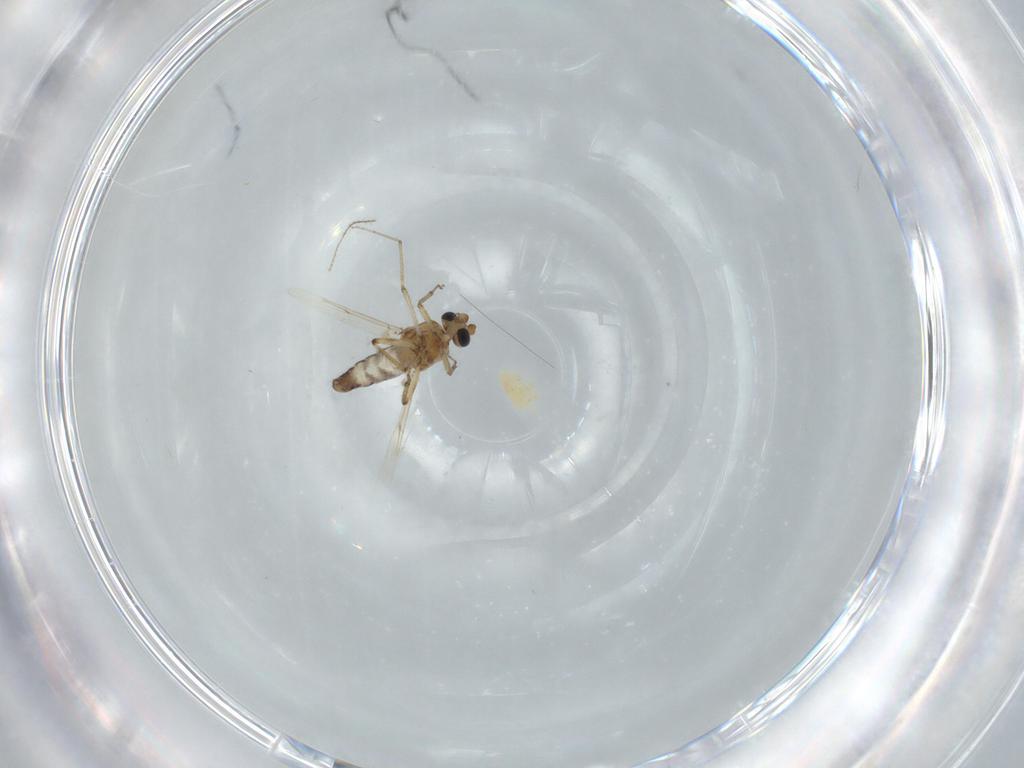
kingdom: Animalia
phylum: Arthropoda
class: Insecta
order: Diptera
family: Ceratopogonidae
